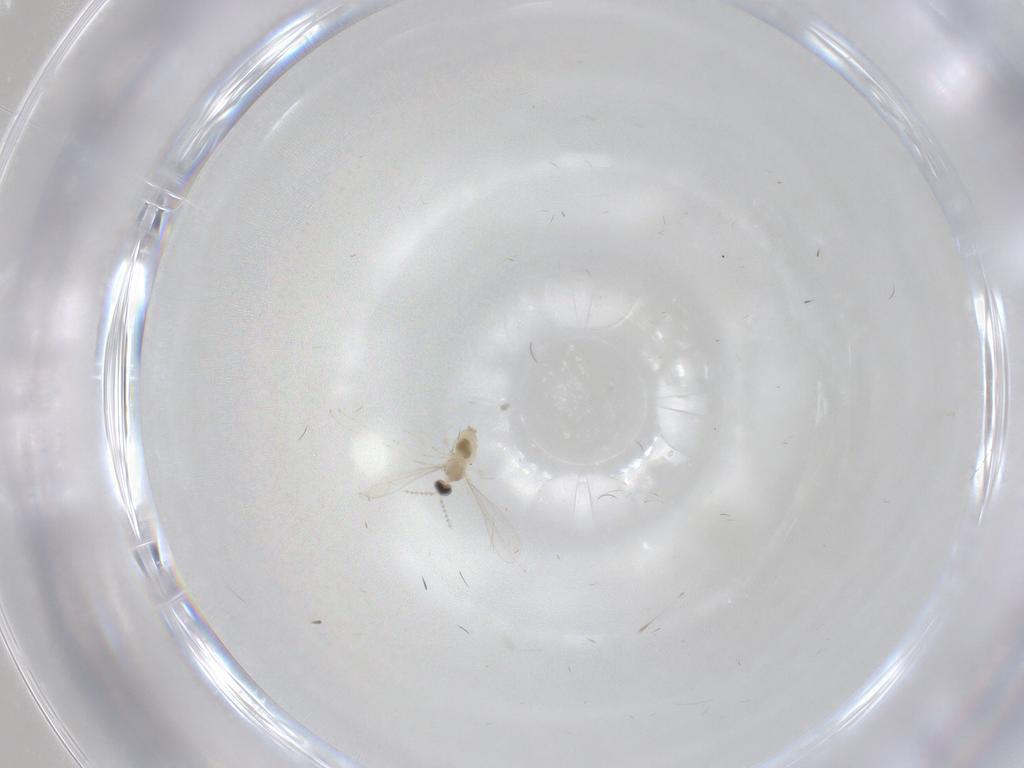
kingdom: Animalia
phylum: Arthropoda
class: Insecta
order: Diptera
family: Cecidomyiidae
